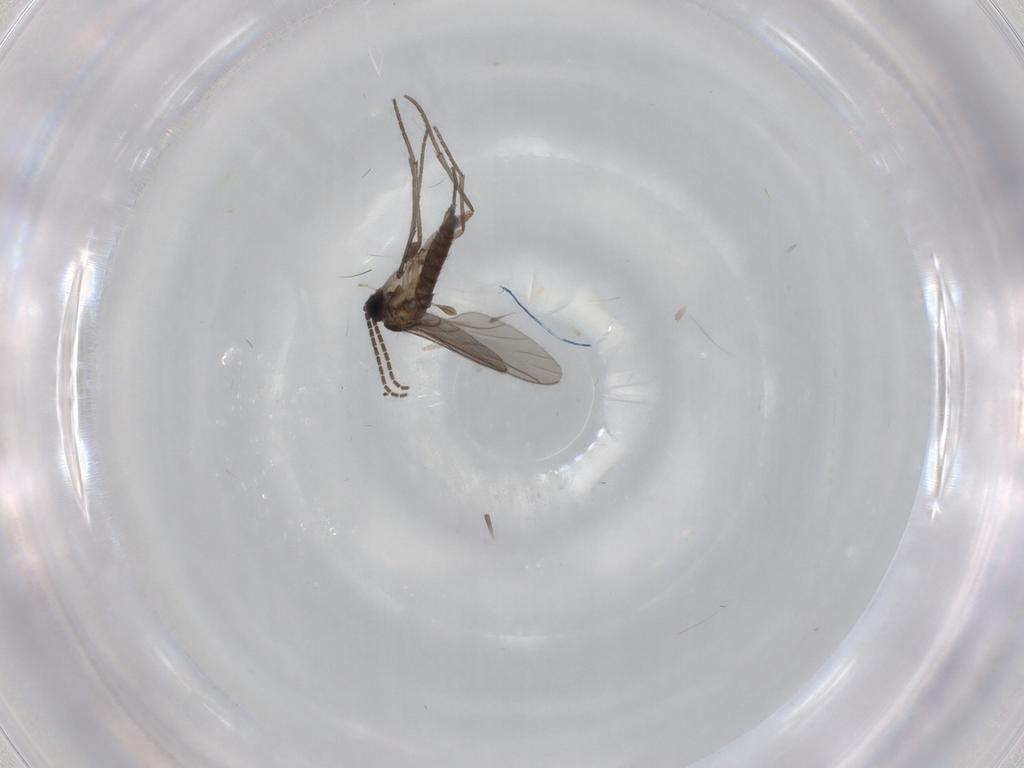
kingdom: Animalia
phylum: Arthropoda
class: Insecta
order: Diptera
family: Sciaridae
